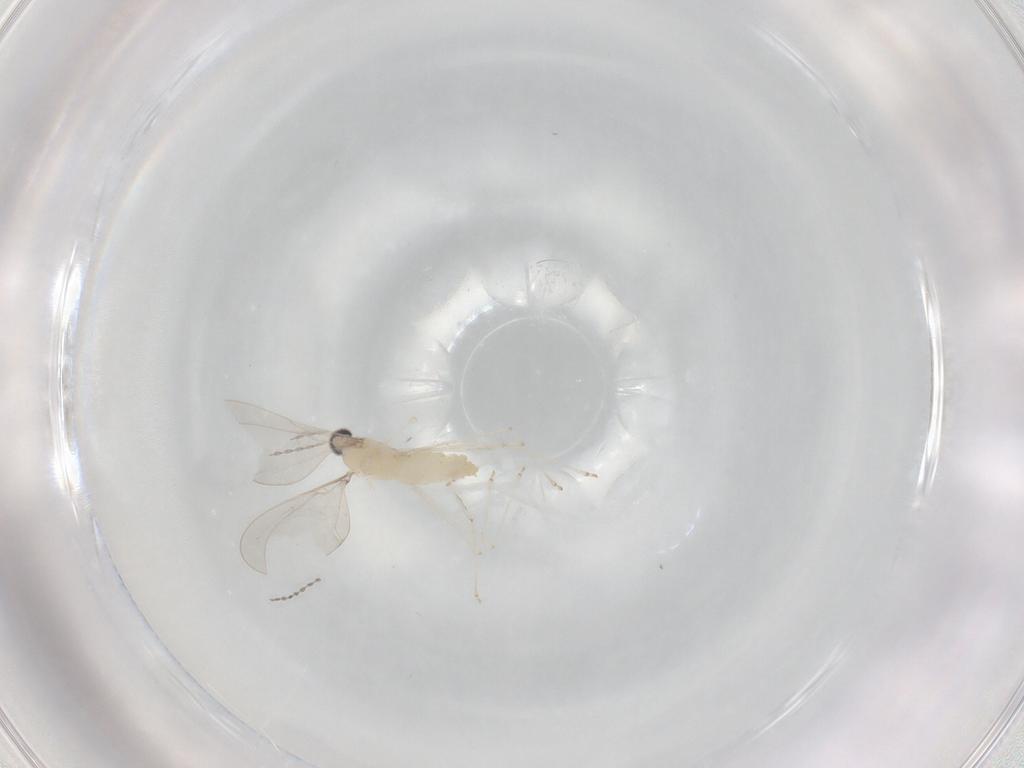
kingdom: Animalia
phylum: Arthropoda
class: Insecta
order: Diptera
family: Cecidomyiidae
